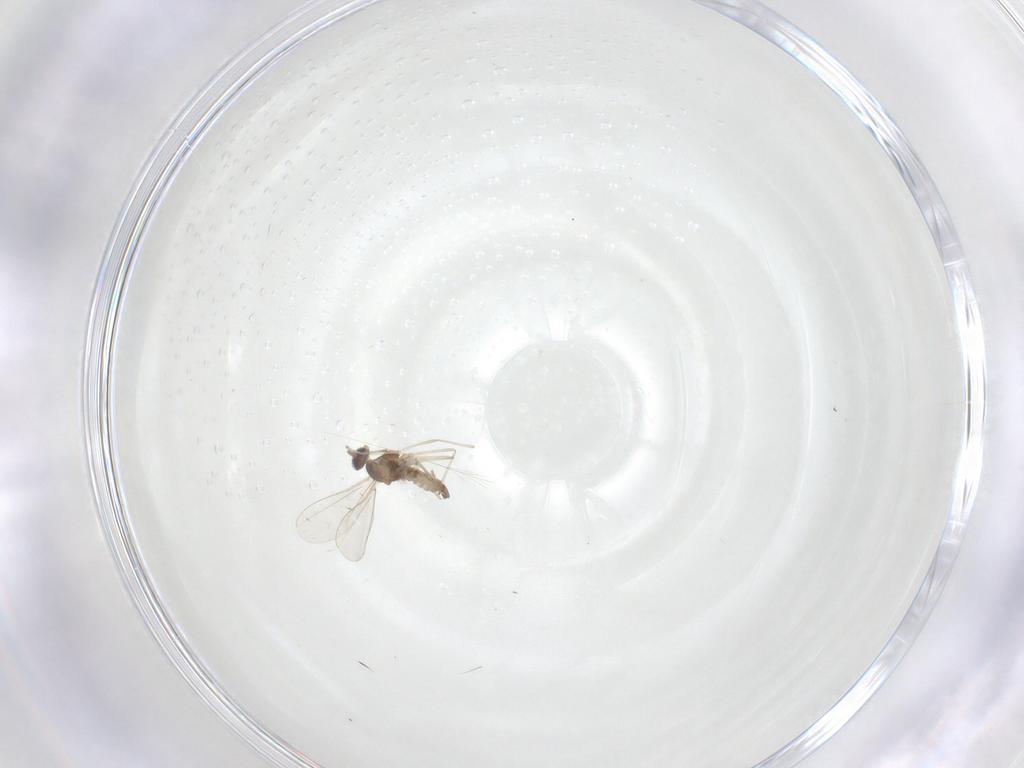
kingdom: Animalia
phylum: Arthropoda
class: Insecta
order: Diptera
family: Cecidomyiidae
